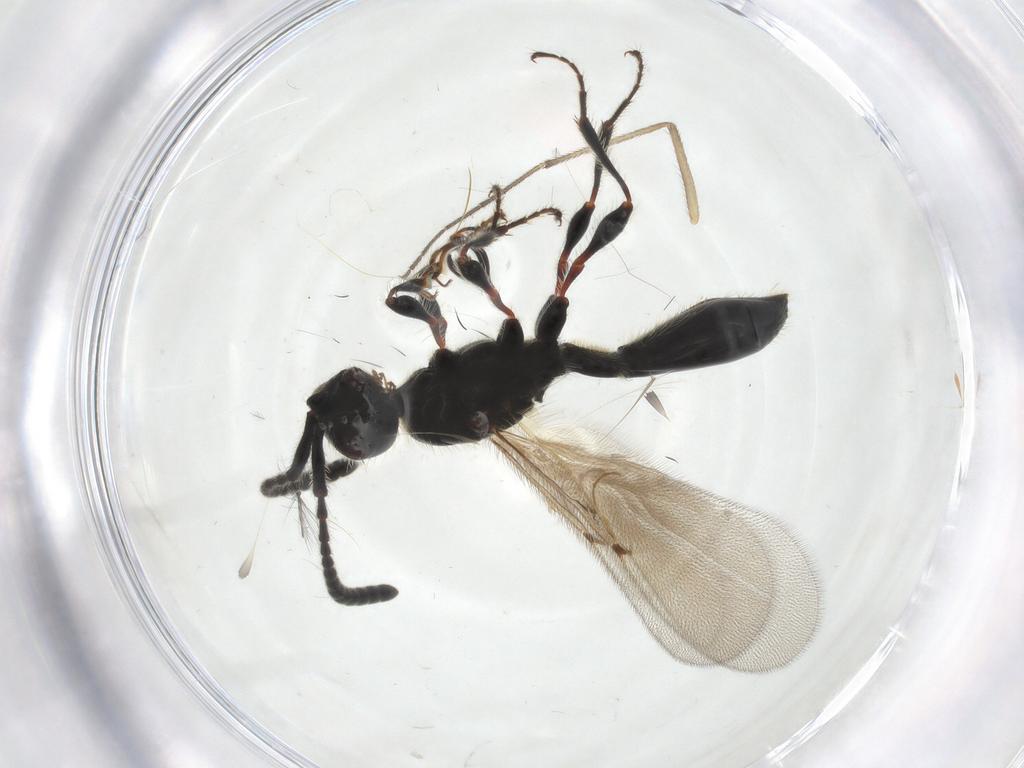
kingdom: Animalia
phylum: Arthropoda
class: Insecta
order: Hymenoptera
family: Diapriidae
